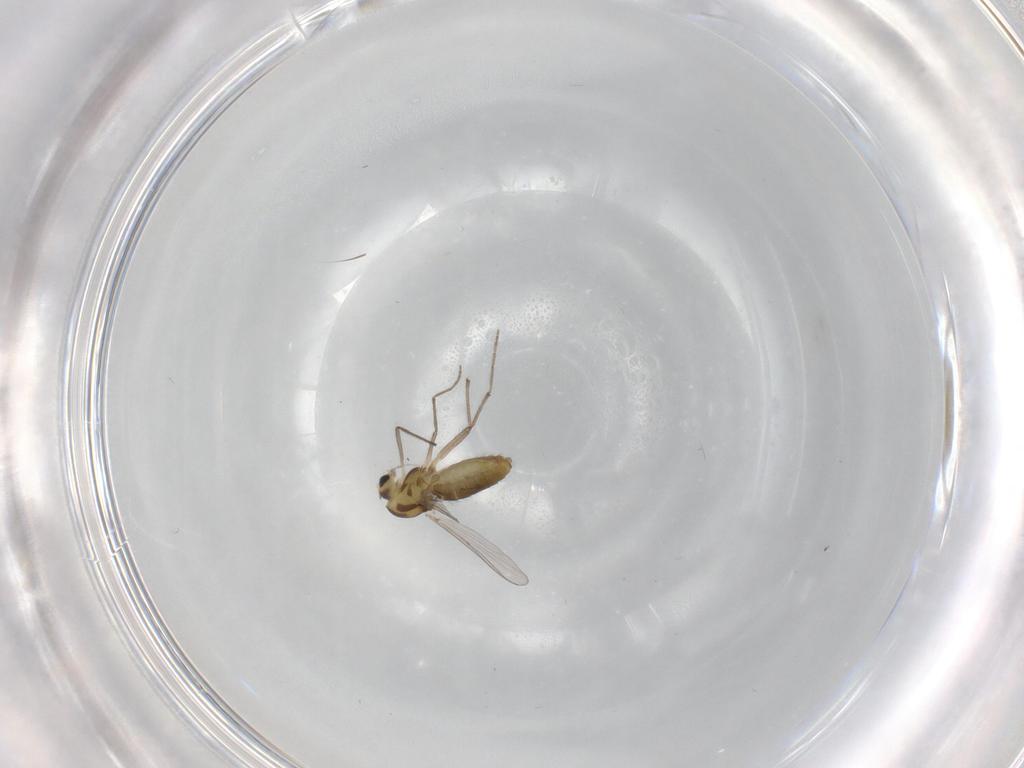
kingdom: Animalia
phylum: Arthropoda
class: Insecta
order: Diptera
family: Chironomidae
